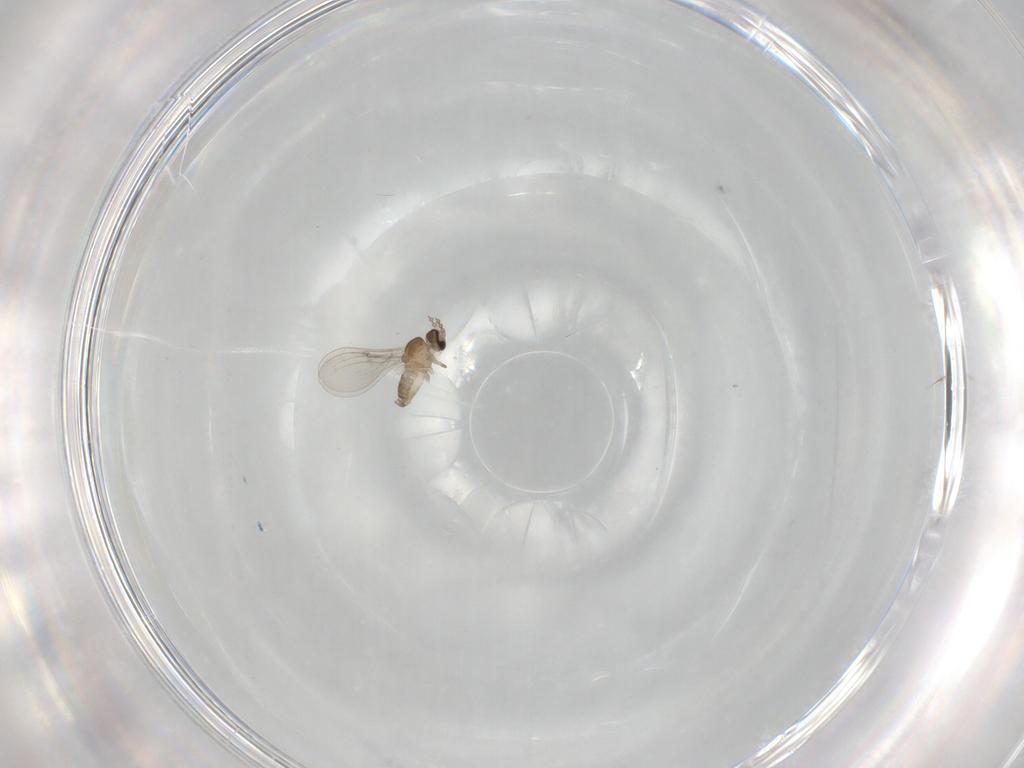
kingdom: Animalia
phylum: Arthropoda
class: Insecta
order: Diptera
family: Cecidomyiidae
